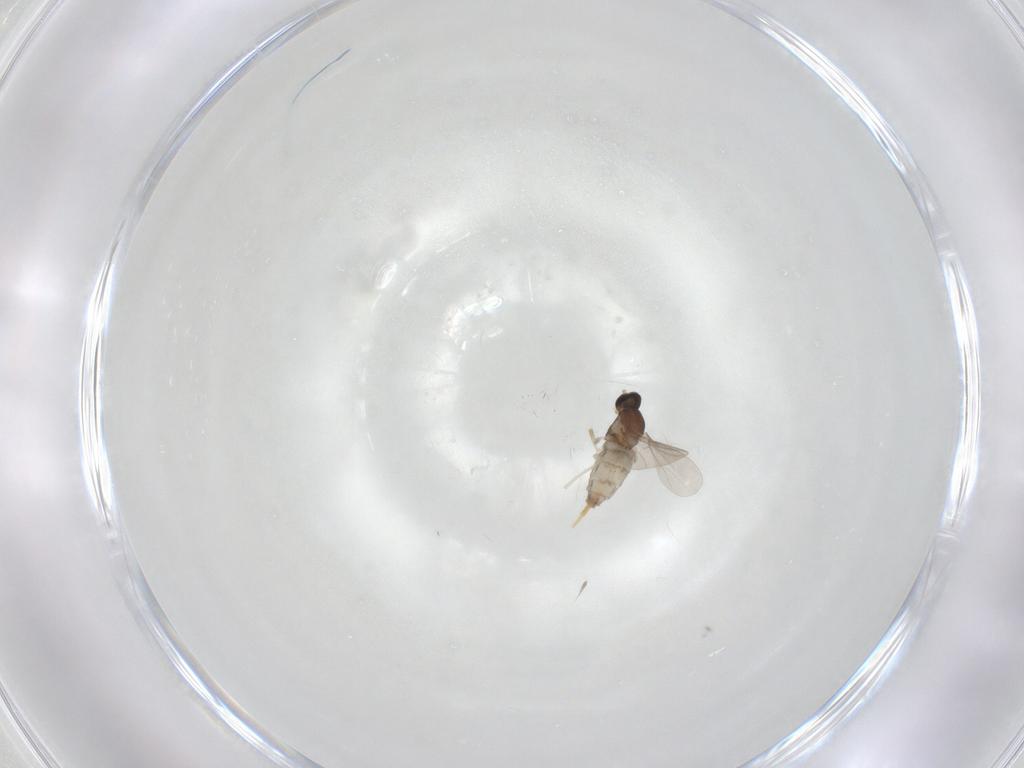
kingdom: Animalia
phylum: Arthropoda
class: Insecta
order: Diptera
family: Cecidomyiidae
